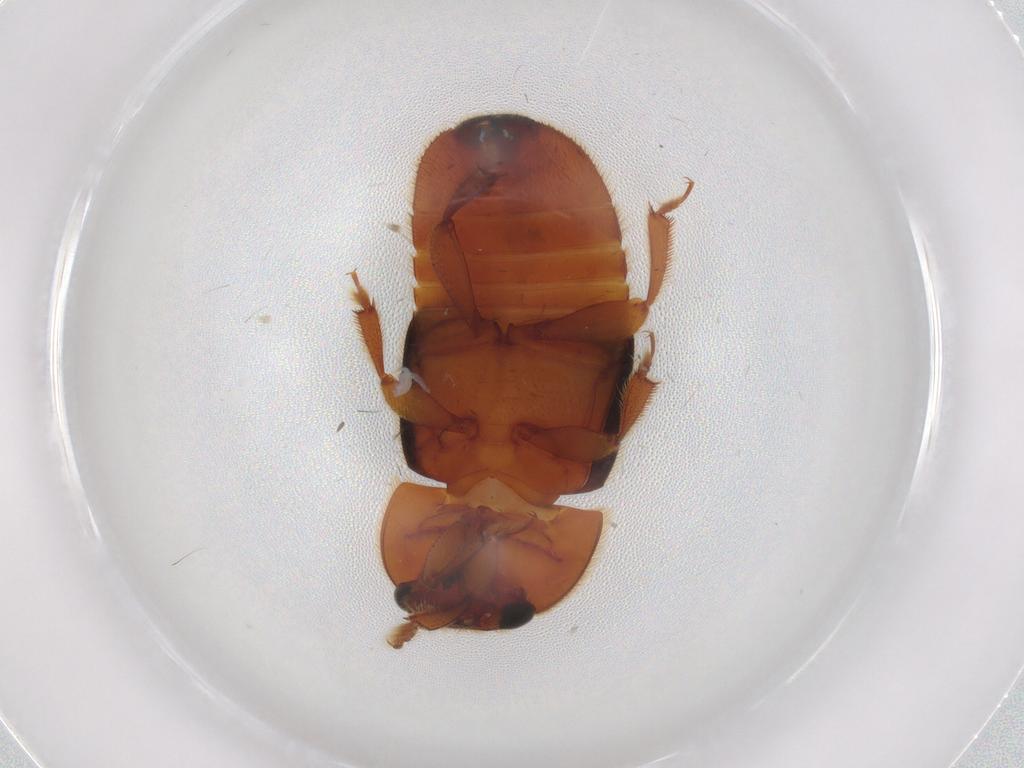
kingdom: Animalia
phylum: Arthropoda
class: Insecta
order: Coleoptera
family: Nitidulidae
